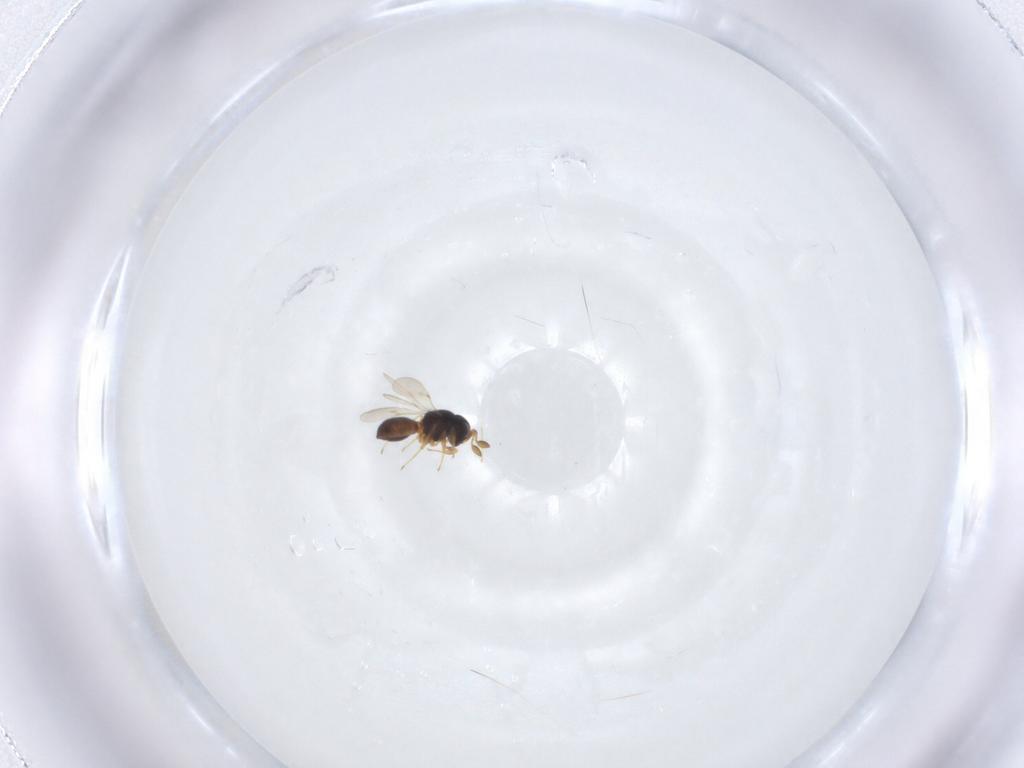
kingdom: Animalia
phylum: Arthropoda
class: Insecta
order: Hymenoptera
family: Scelionidae
